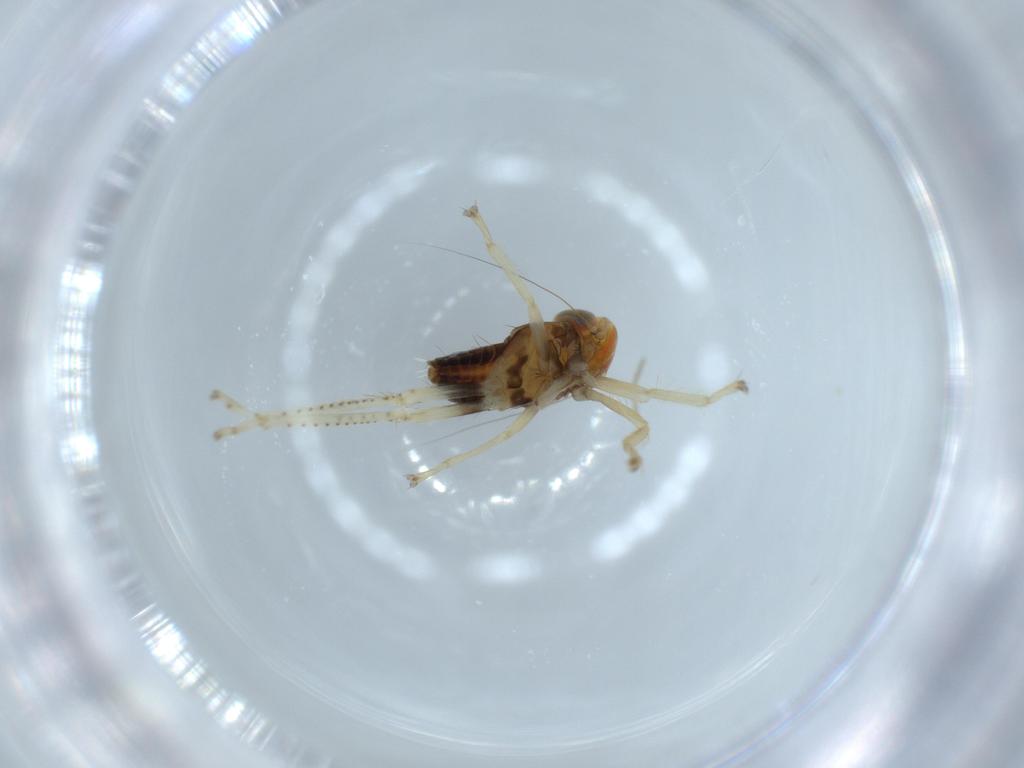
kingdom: Animalia
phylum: Arthropoda
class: Insecta
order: Hemiptera
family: Cicadellidae
